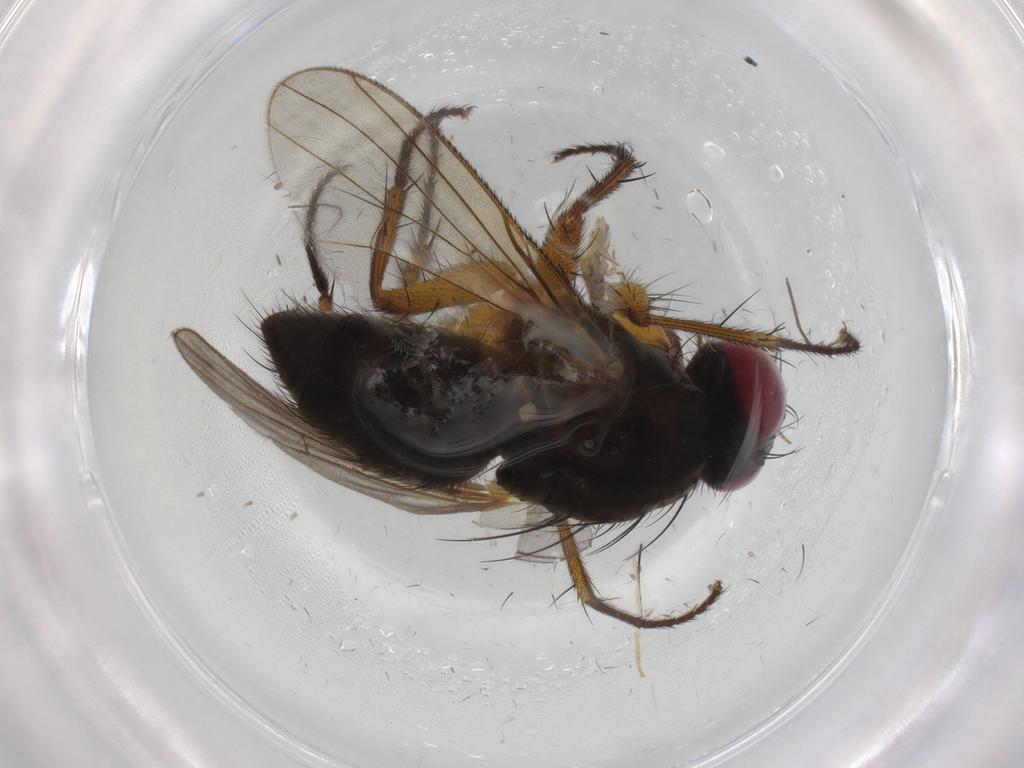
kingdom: Animalia
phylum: Arthropoda
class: Insecta
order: Diptera
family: Muscidae
